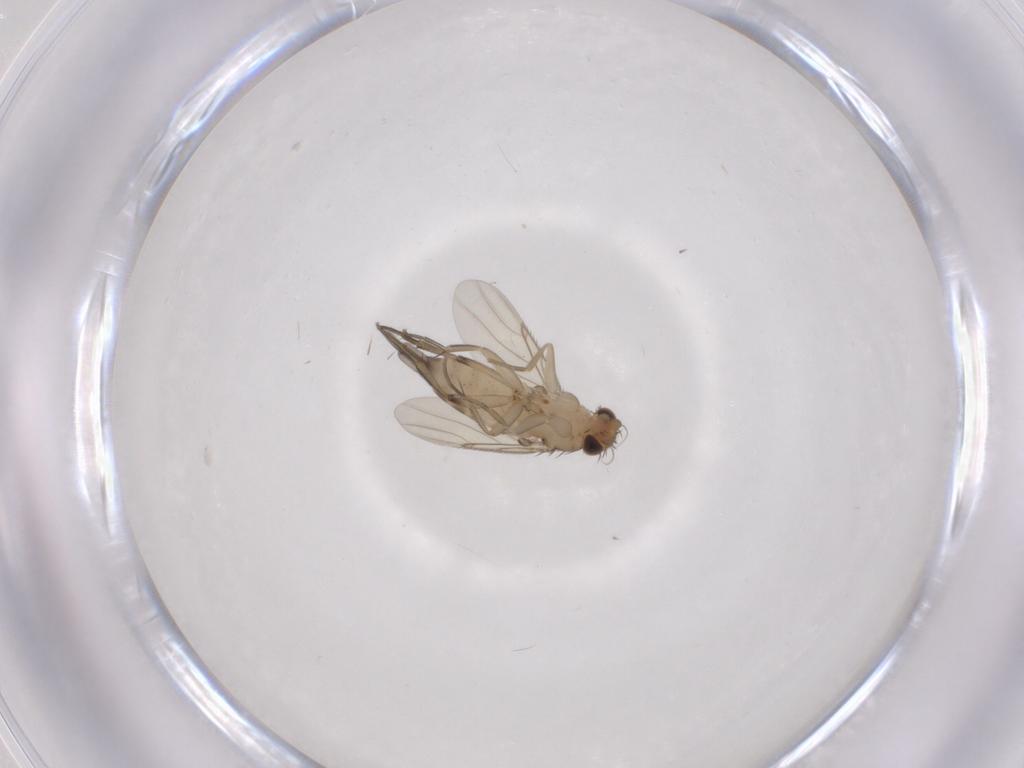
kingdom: Animalia
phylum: Arthropoda
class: Insecta
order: Diptera
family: Phoridae
